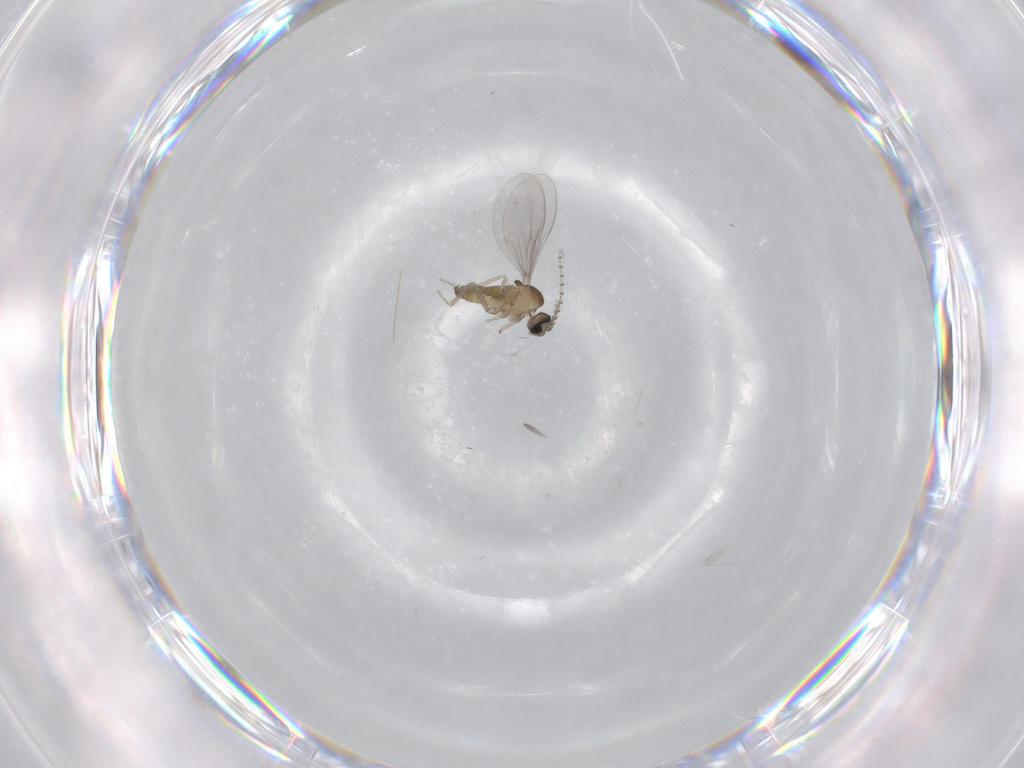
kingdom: Animalia
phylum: Arthropoda
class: Insecta
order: Diptera
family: Cecidomyiidae
